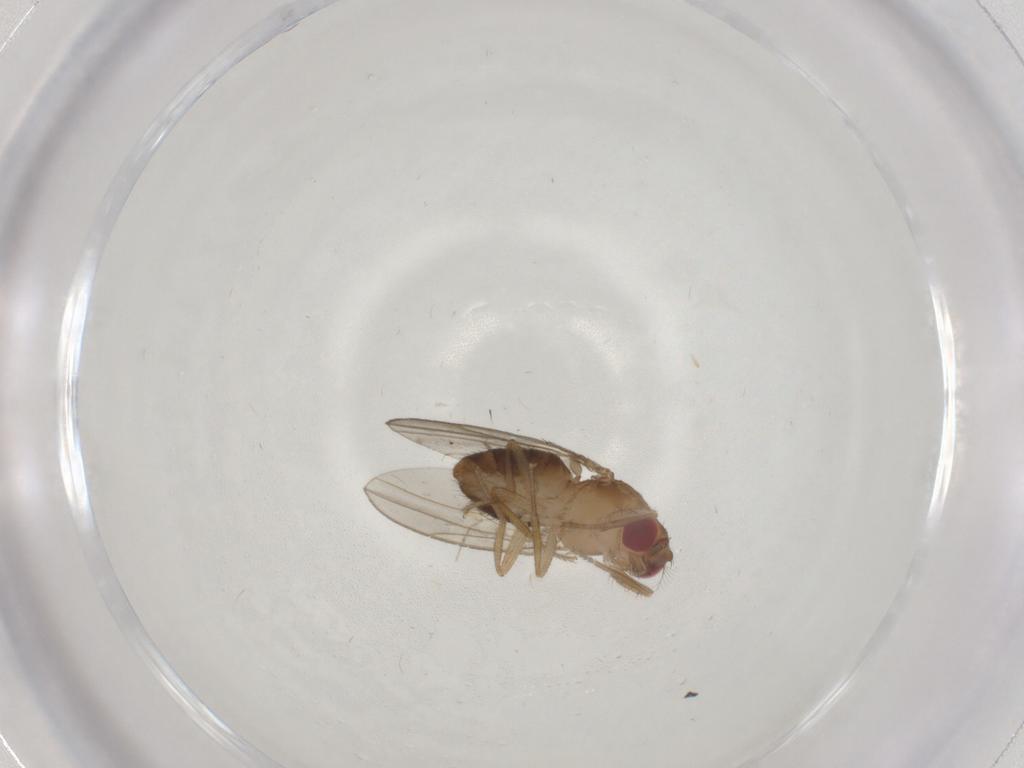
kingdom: Animalia
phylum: Arthropoda
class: Insecta
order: Diptera
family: Drosophilidae
